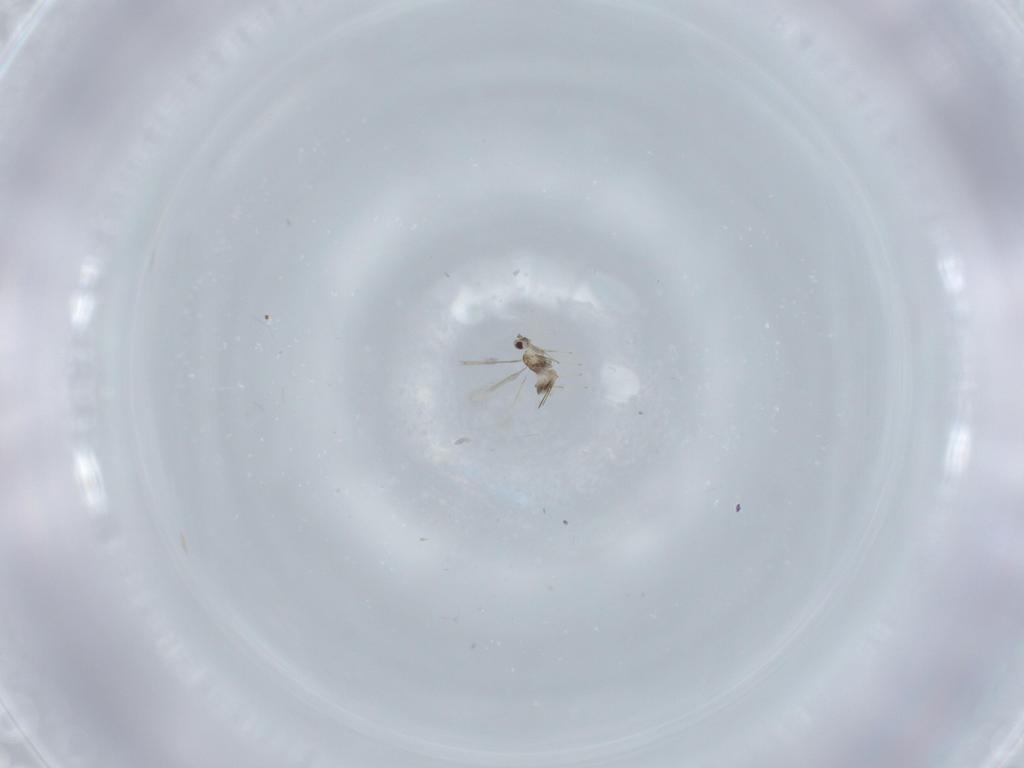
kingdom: Animalia
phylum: Arthropoda
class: Insecta
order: Hymenoptera
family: Mymaridae
